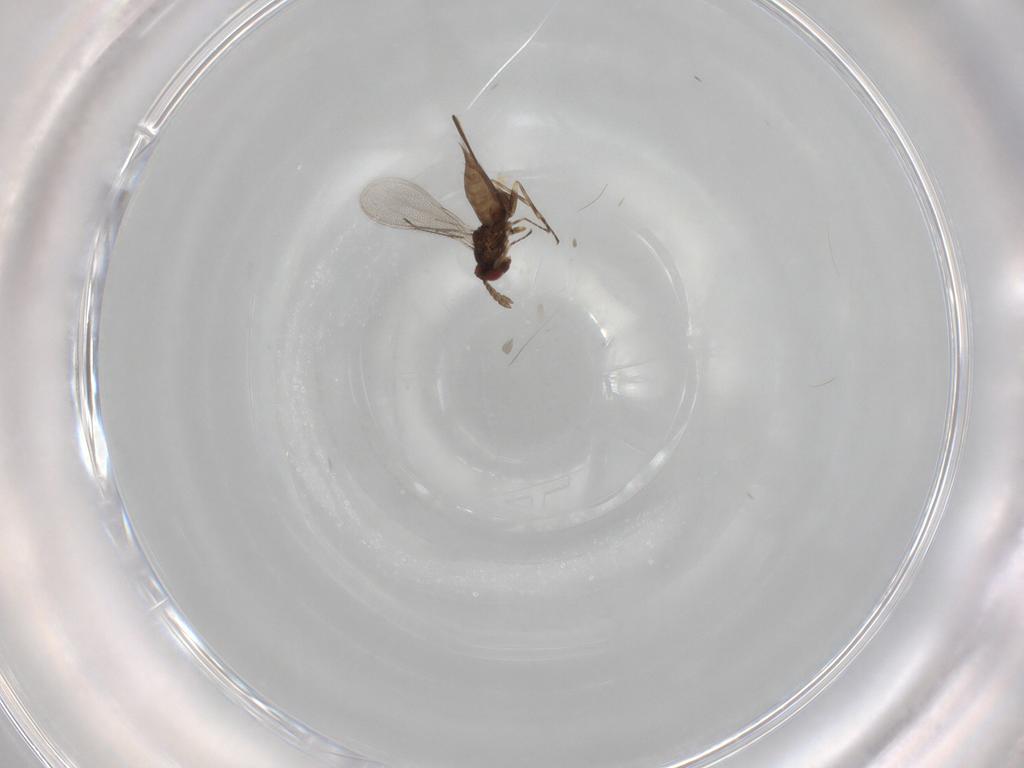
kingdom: Animalia
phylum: Arthropoda
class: Insecta
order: Hymenoptera
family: Eulophidae
